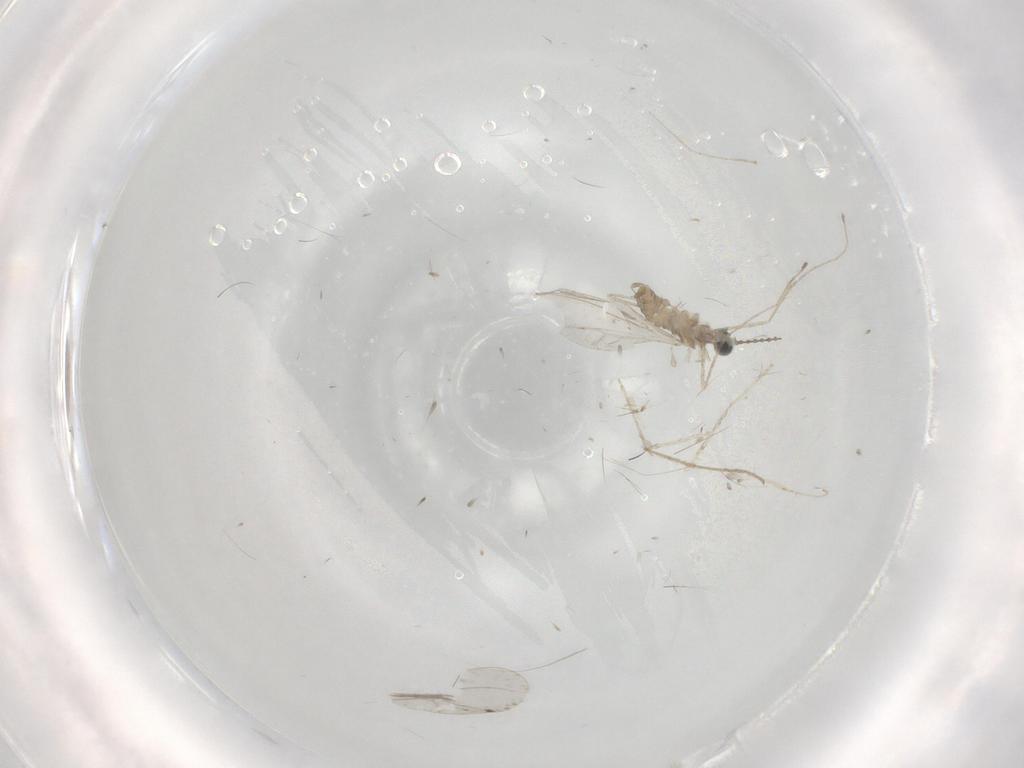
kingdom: Animalia
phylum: Arthropoda
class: Insecta
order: Diptera
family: Cecidomyiidae
